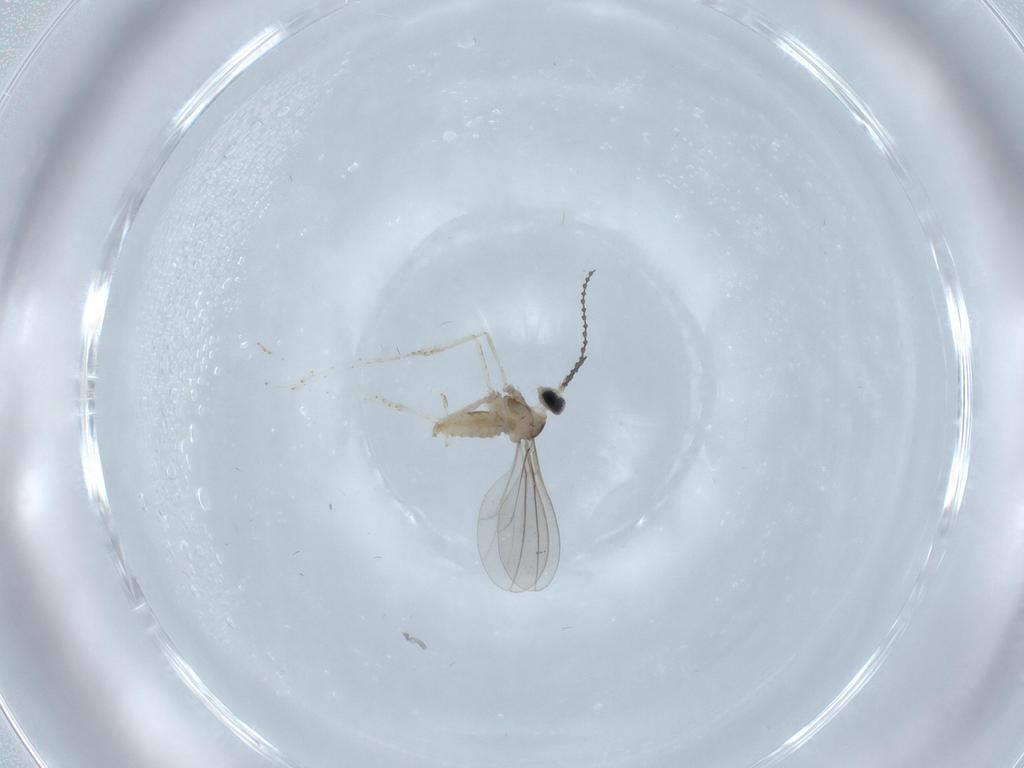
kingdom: Animalia
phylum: Arthropoda
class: Insecta
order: Diptera
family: Cecidomyiidae
